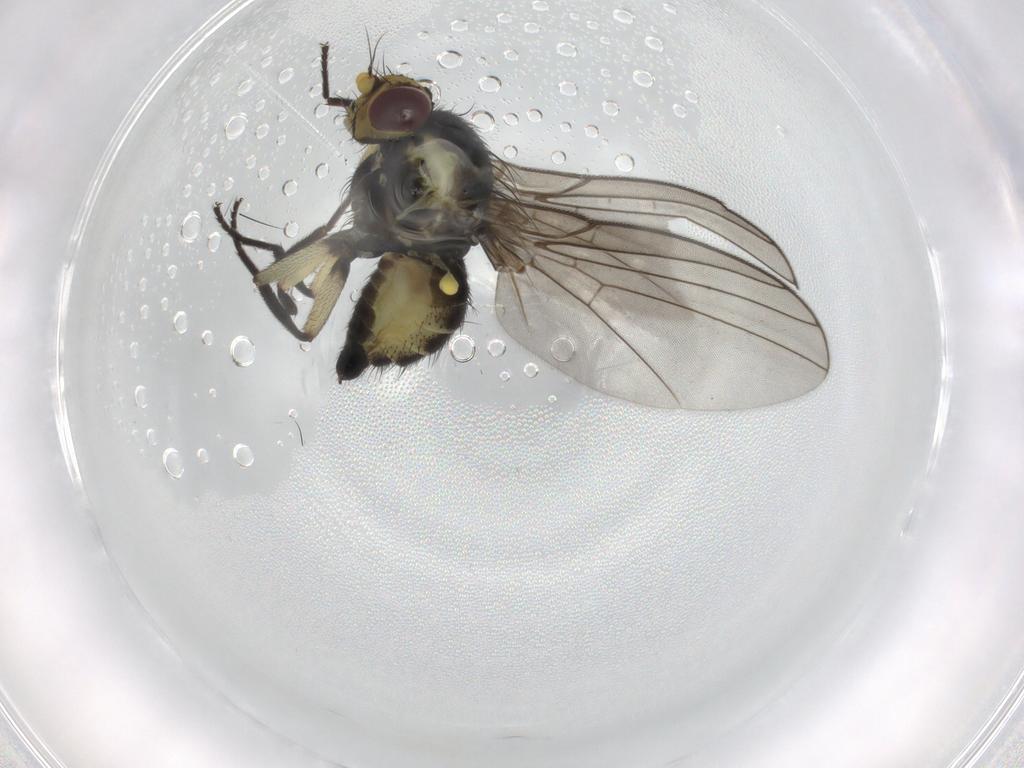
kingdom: Animalia
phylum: Arthropoda
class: Insecta
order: Diptera
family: Agromyzidae
